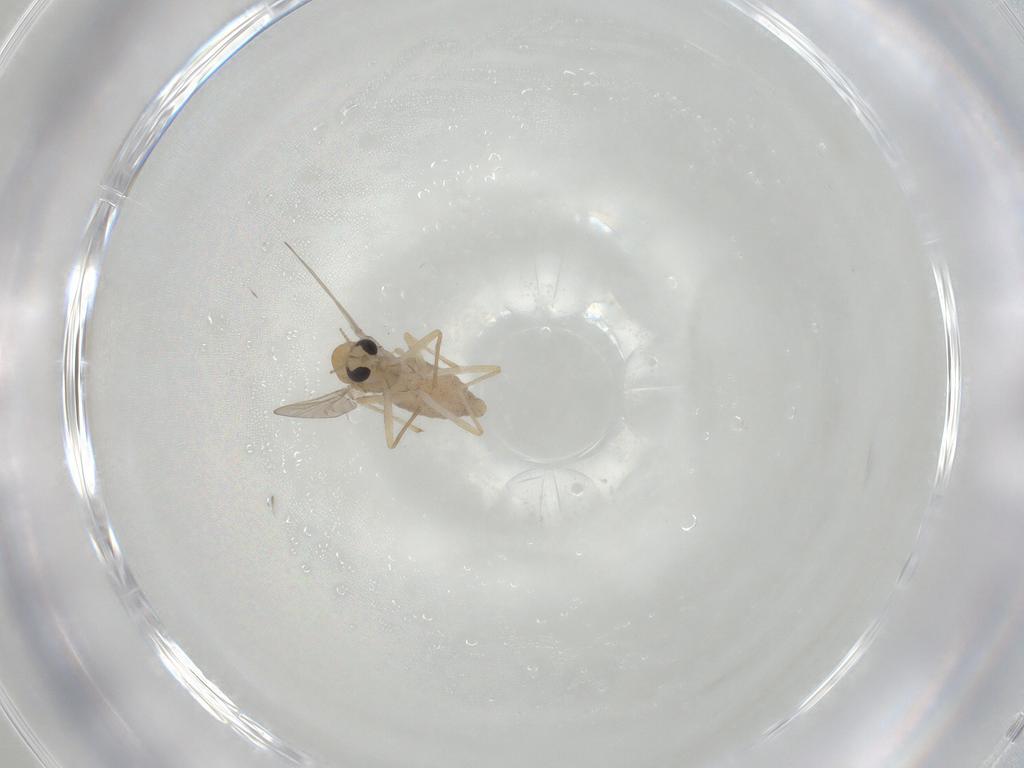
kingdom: Animalia
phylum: Arthropoda
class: Insecta
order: Diptera
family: Chironomidae
